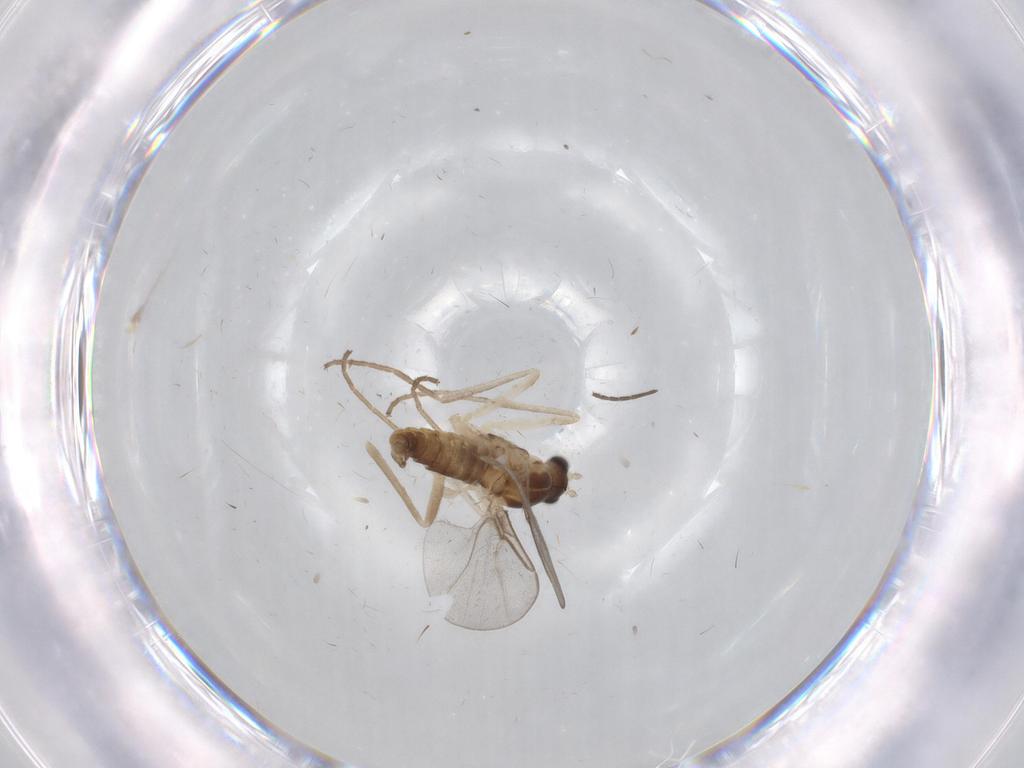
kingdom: Animalia
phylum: Arthropoda
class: Insecta
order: Diptera
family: Cecidomyiidae
